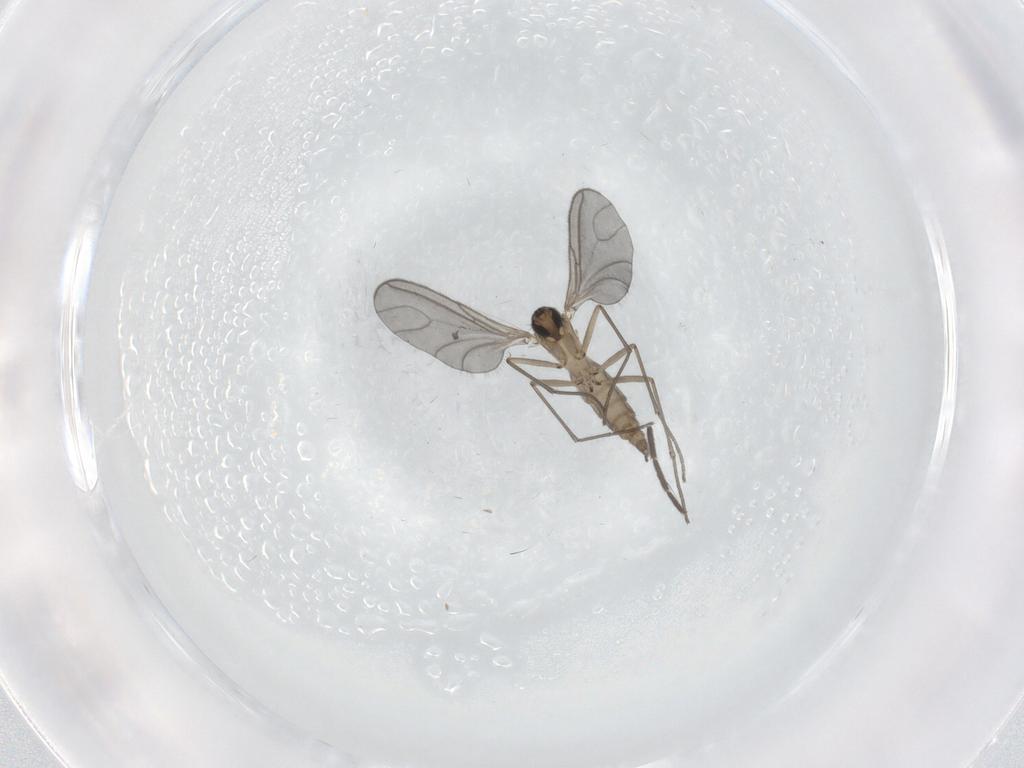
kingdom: Animalia
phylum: Arthropoda
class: Insecta
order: Diptera
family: Sciaridae
